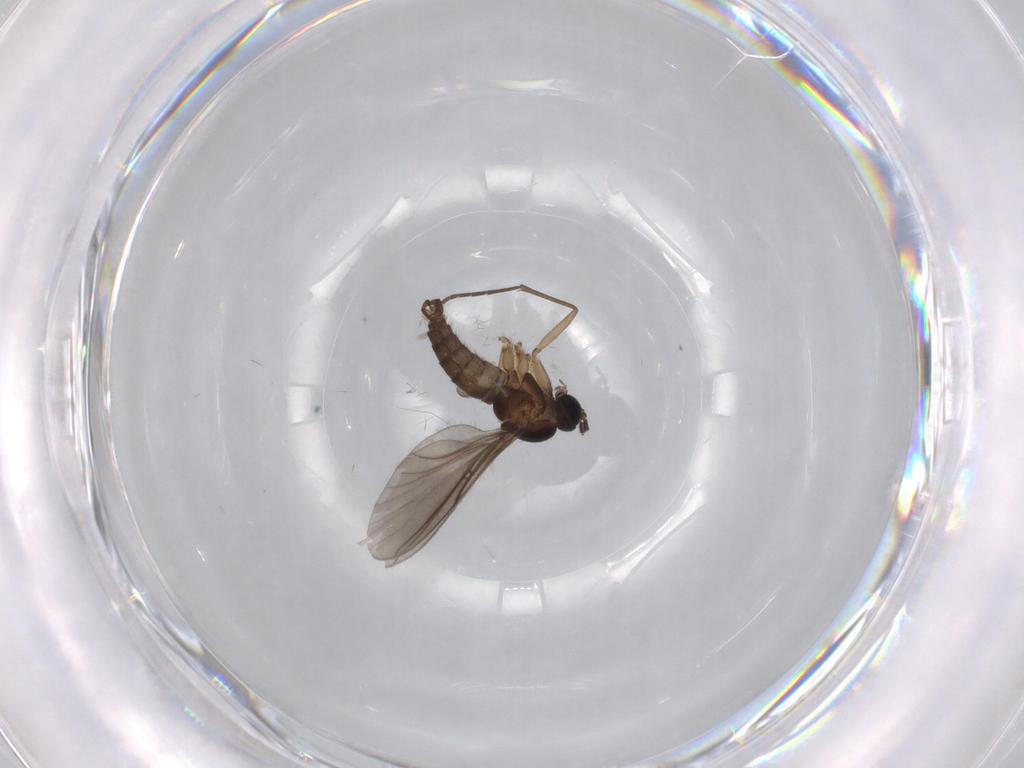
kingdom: Animalia
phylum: Arthropoda
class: Insecta
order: Diptera
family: Sciaridae
